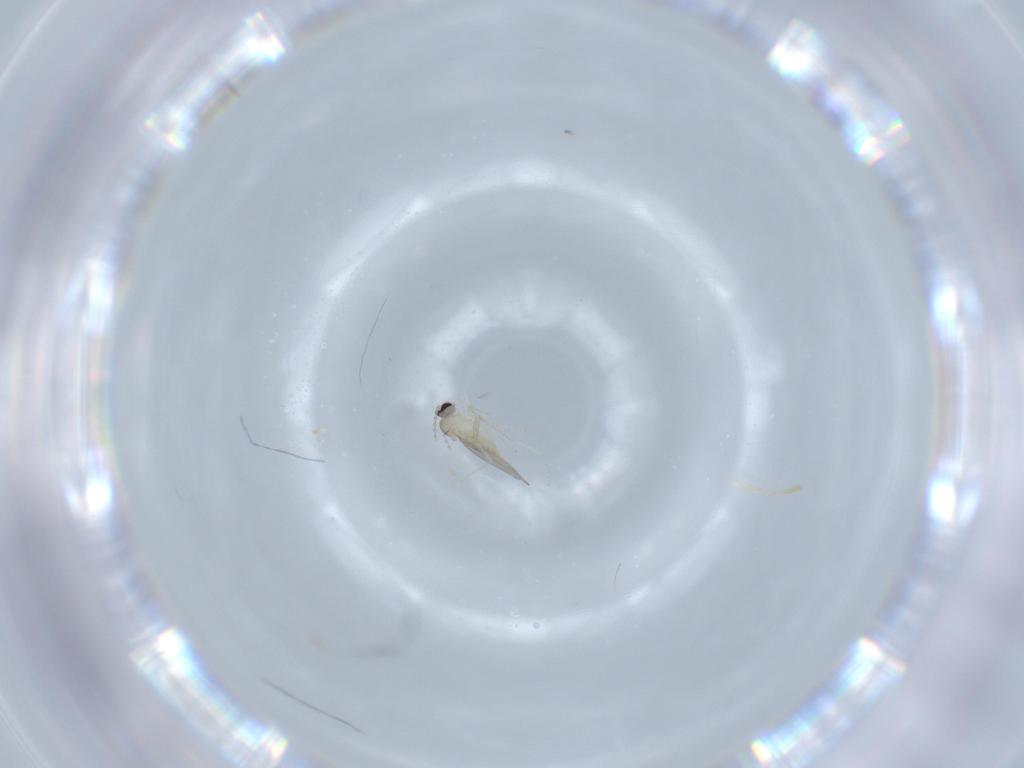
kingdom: Animalia
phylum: Arthropoda
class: Insecta
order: Diptera
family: Cecidomyiidae
